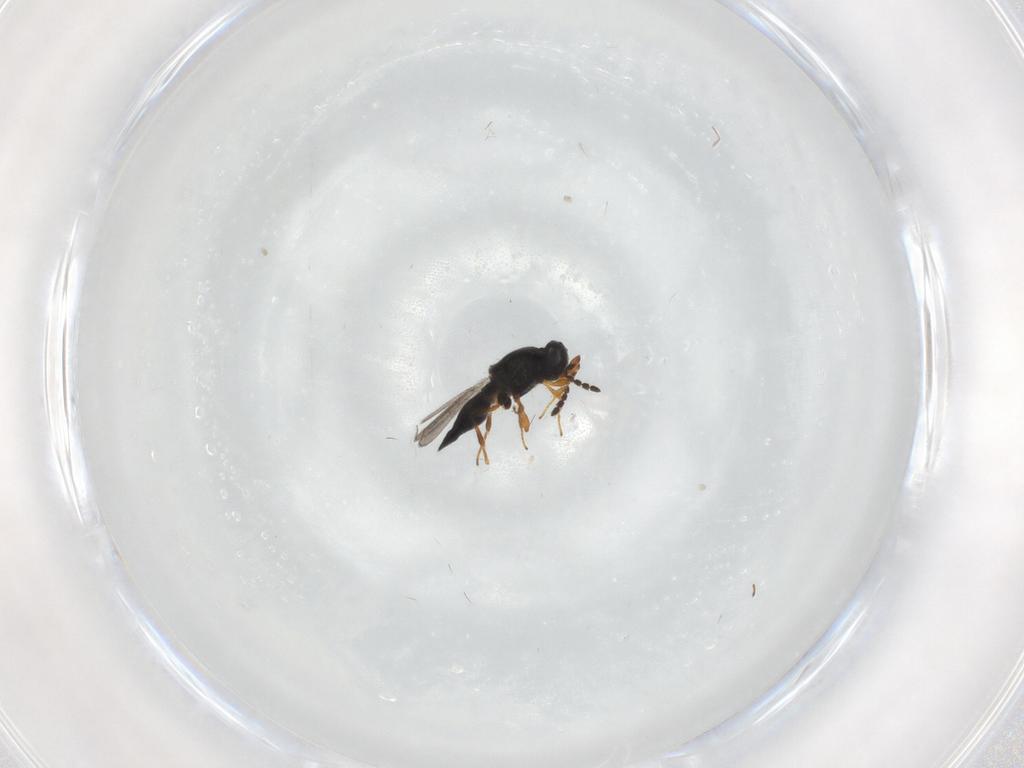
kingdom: Animalia
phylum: Arthropoda
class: Insecta
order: Hymenoptera
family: Platygastridae
